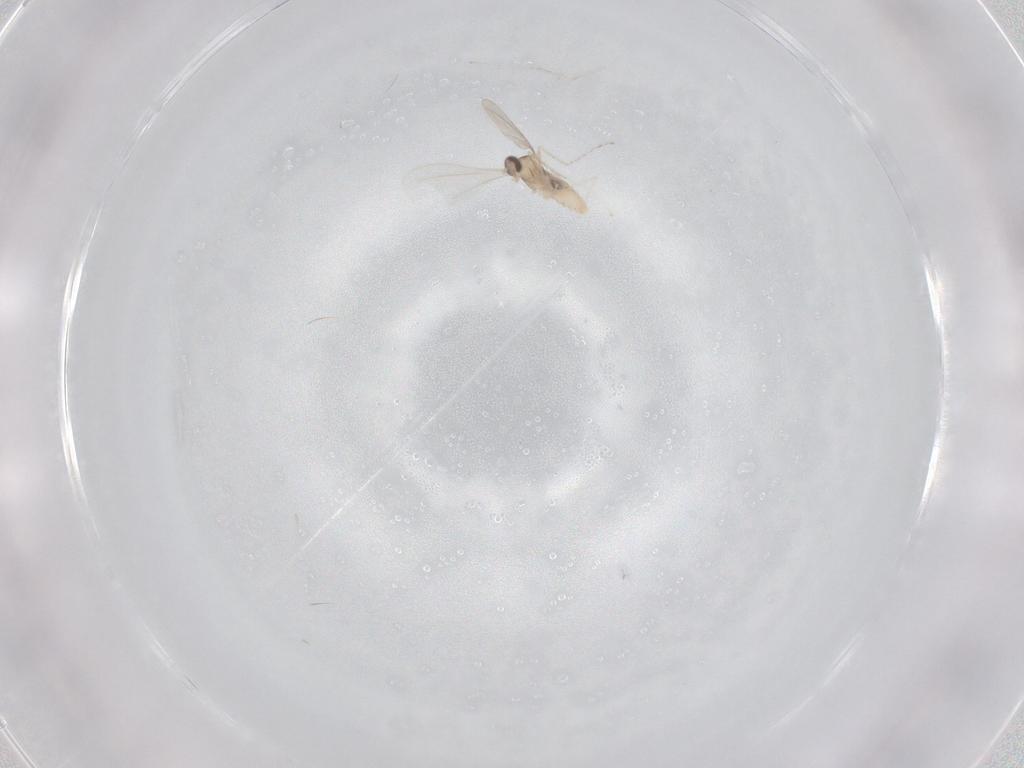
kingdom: Animalia
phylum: Arthropoda
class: Insecta
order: Diptera
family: Cecidomyiidae
